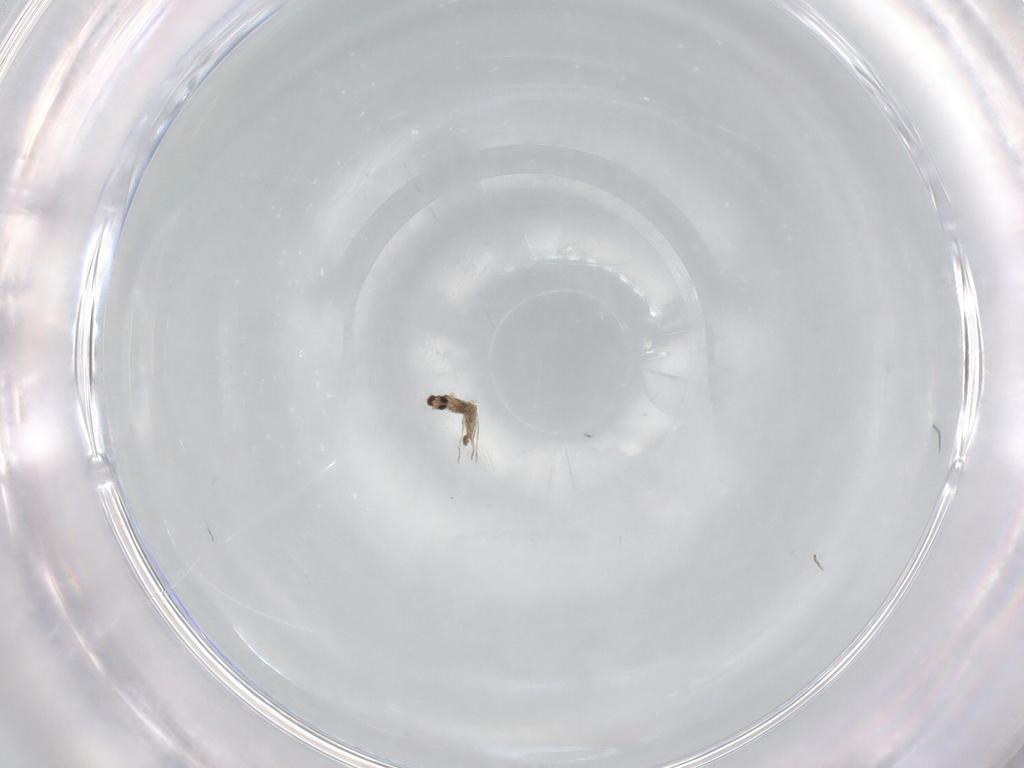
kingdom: Animalia
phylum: Arthropoda
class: Insecta
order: Diptera
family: Cecidomyiidae
